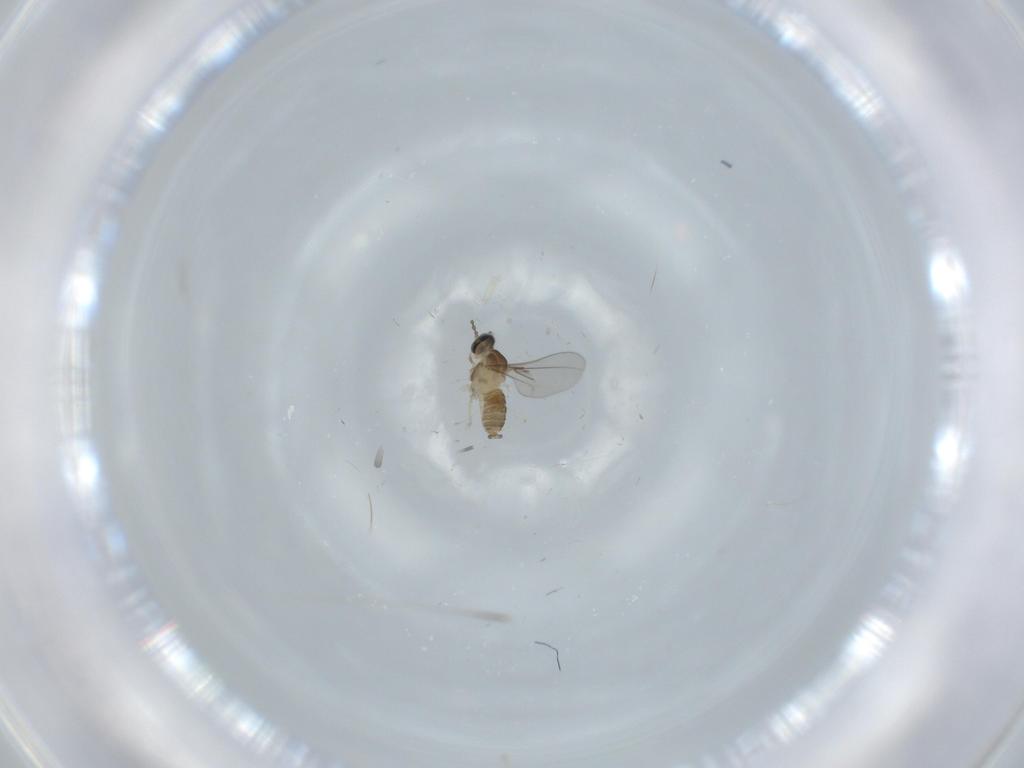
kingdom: Animalia
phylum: Arthropoda
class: Insecta
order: Diptera
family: Cecidomyiidae
